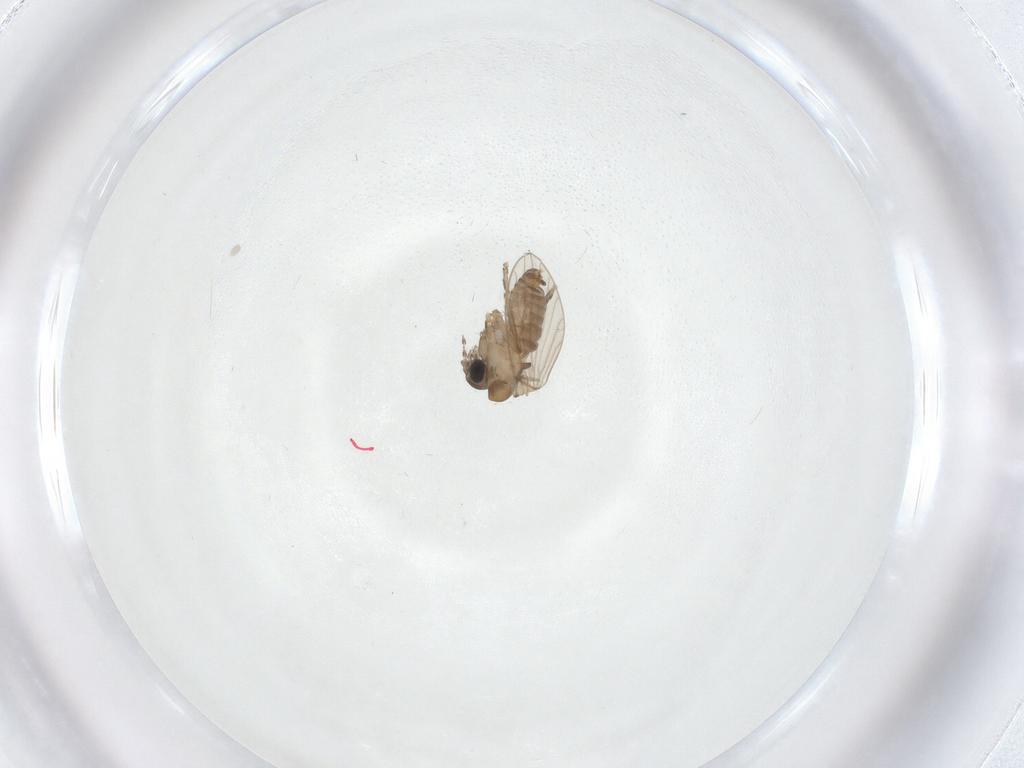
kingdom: Animalia
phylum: Arthropoda
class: Insecta
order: Diptera
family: Psychodidae
